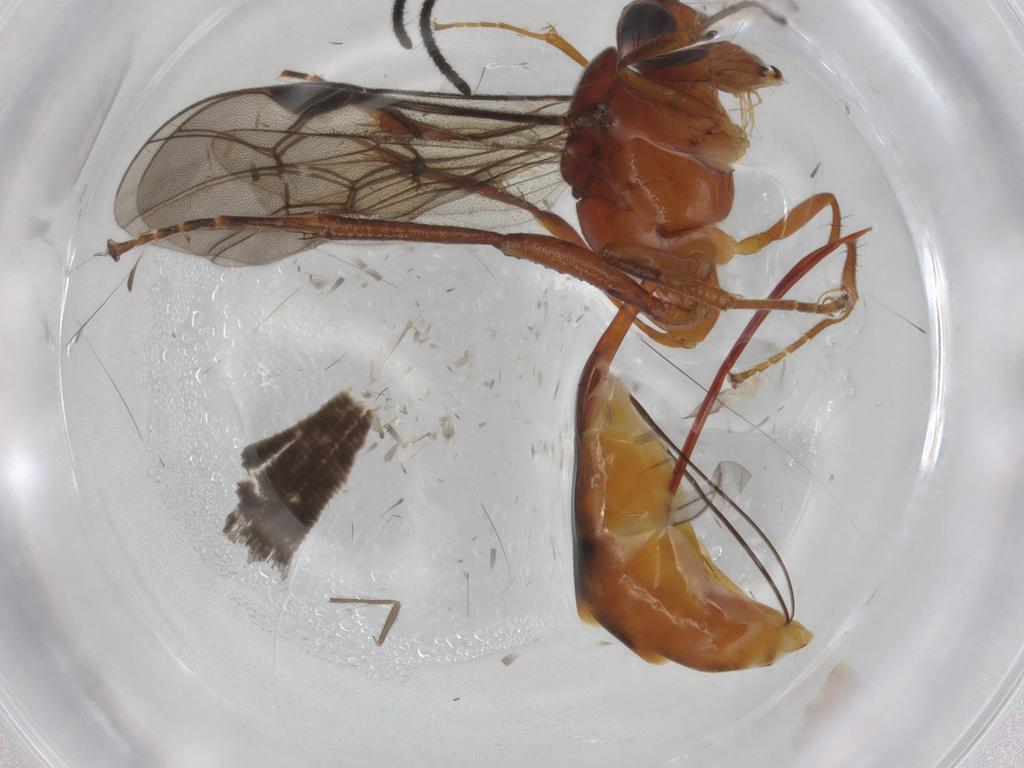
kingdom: Animalia
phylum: Arthropoda
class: Insecta
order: Hymenoptera
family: Ichneumonidae
